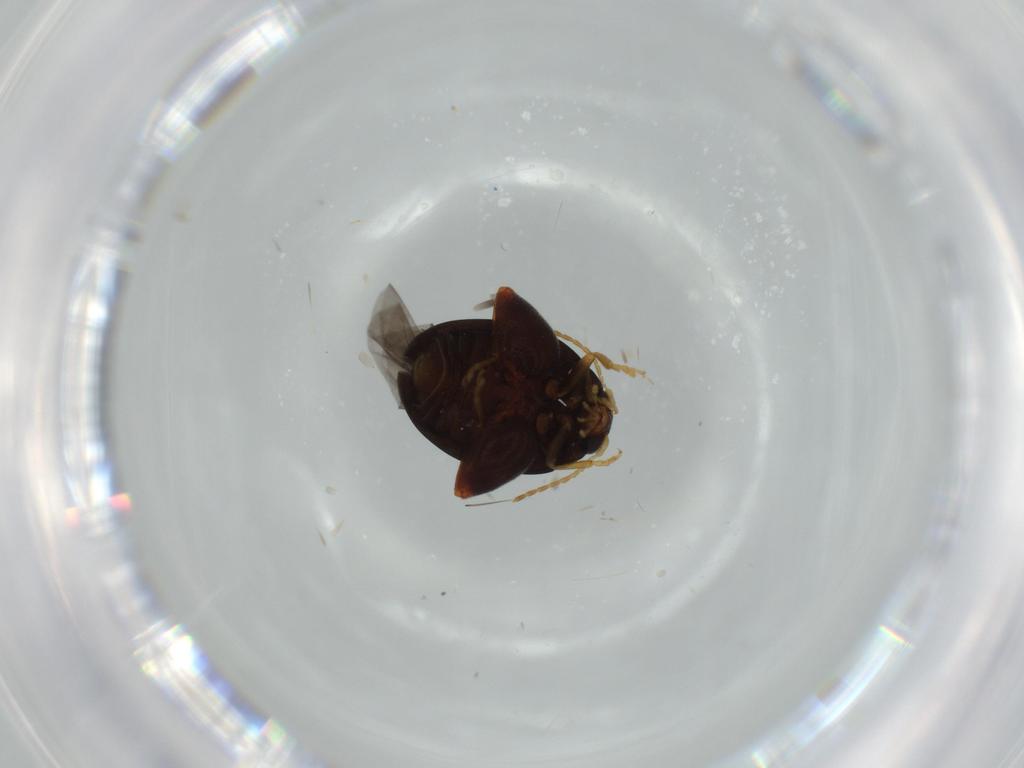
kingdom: Animalia
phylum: Arthropoda
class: Insecta
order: Coleoptera
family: Chrysomelidae
